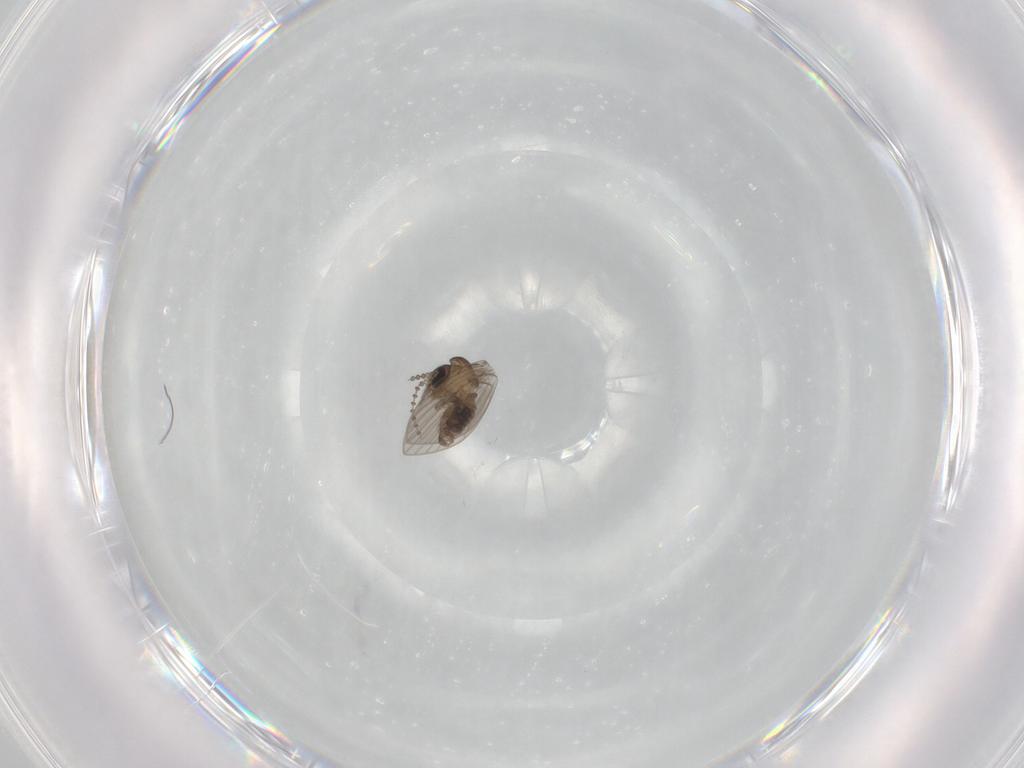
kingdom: Animalia
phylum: Arthropoda
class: Insecta
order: Diptera
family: Psychodidae
